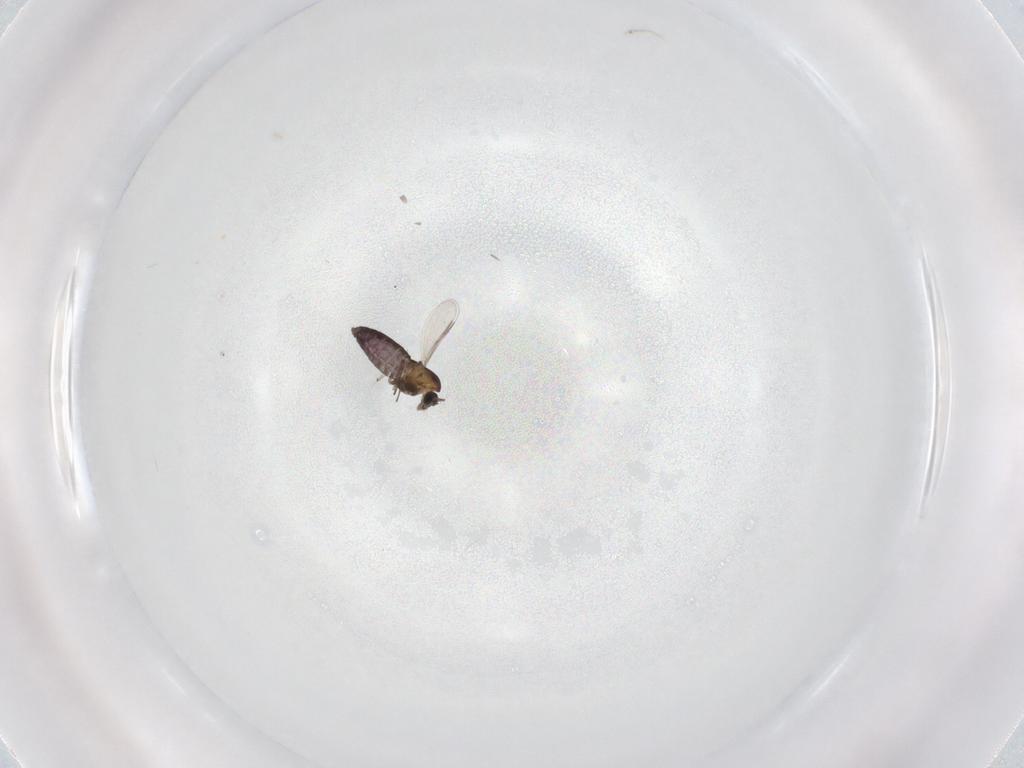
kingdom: Animalia
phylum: Arthropoda
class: Insecta
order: Diptera
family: Chironomidae
